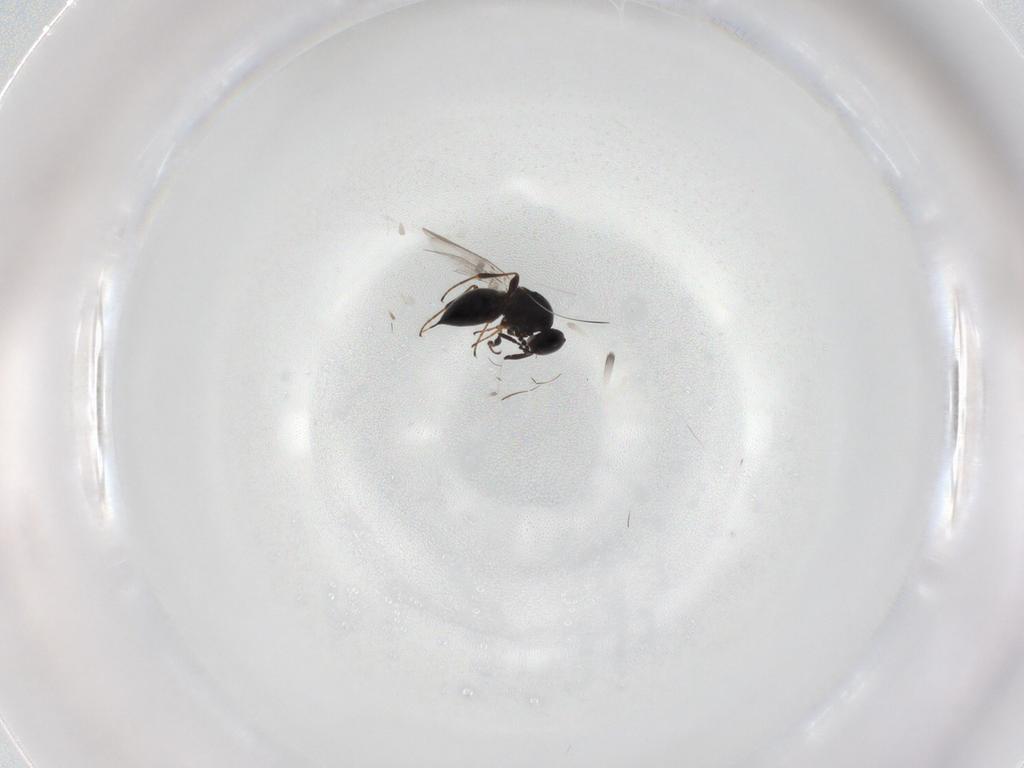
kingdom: Animalia
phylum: Arthropoda
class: Insecta
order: Hymenoptera
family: Platygastridae
